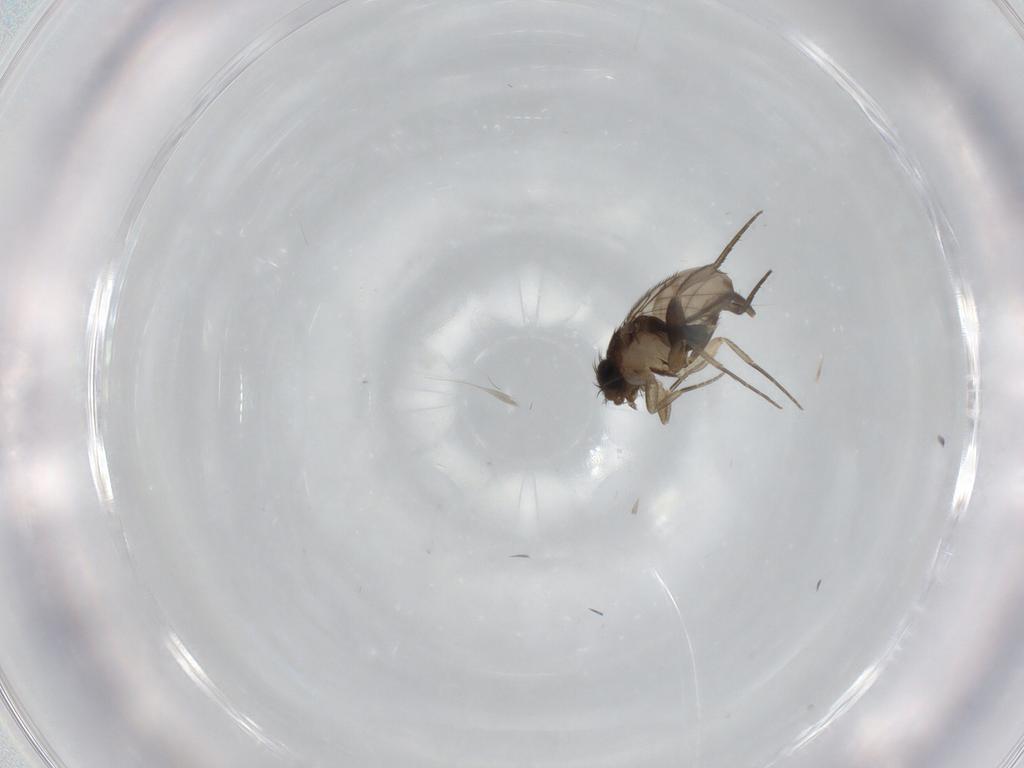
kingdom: Animalia
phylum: Arthropoda
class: Insecta
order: Diptera
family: Phoridae
